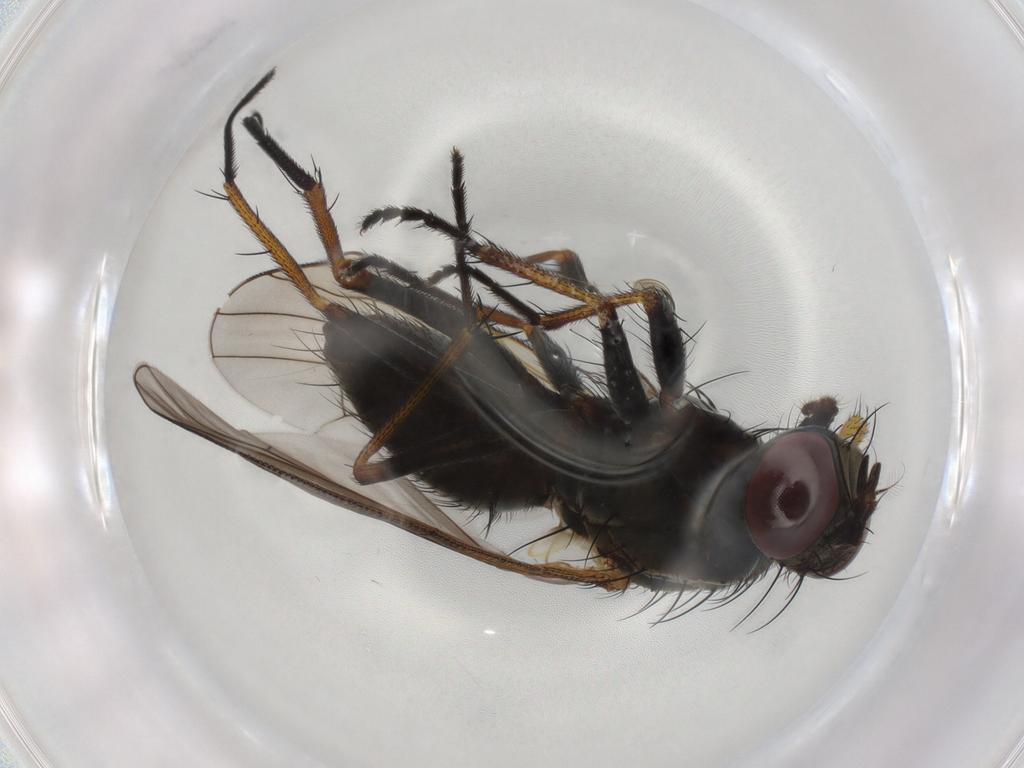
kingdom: Animalia
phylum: Arthropoda
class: Insecta
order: Diptera
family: Muscidae
